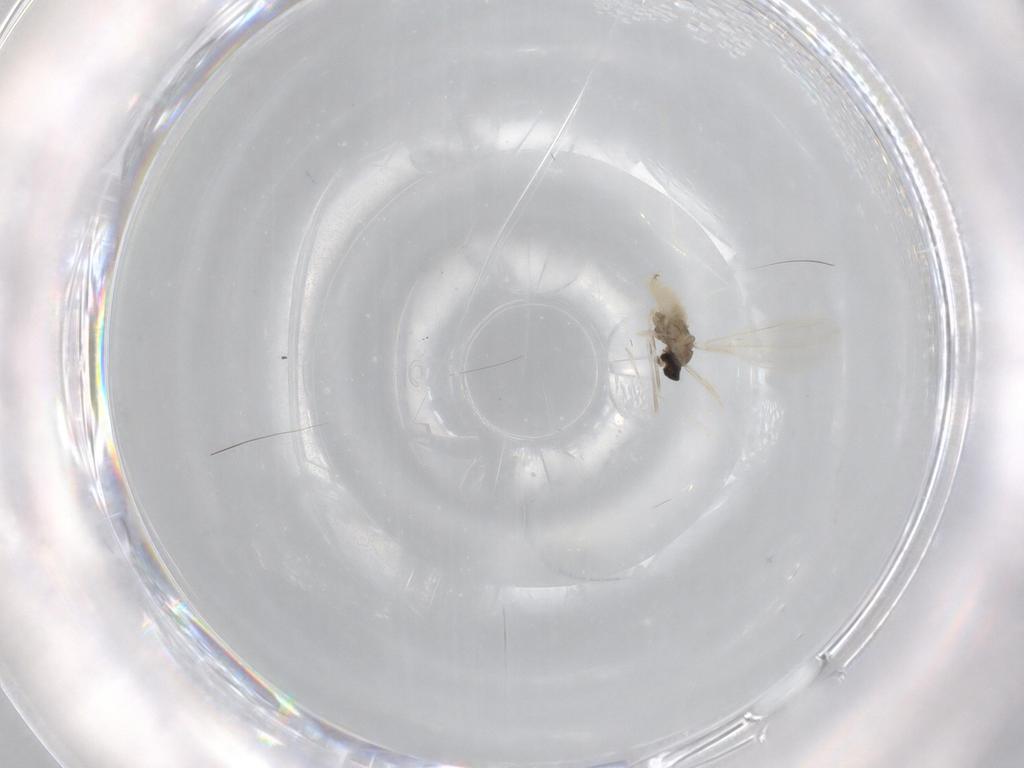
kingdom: Animalia
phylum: Arthropoda
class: Insecta
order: Diptera
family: Cecidomyiidae
